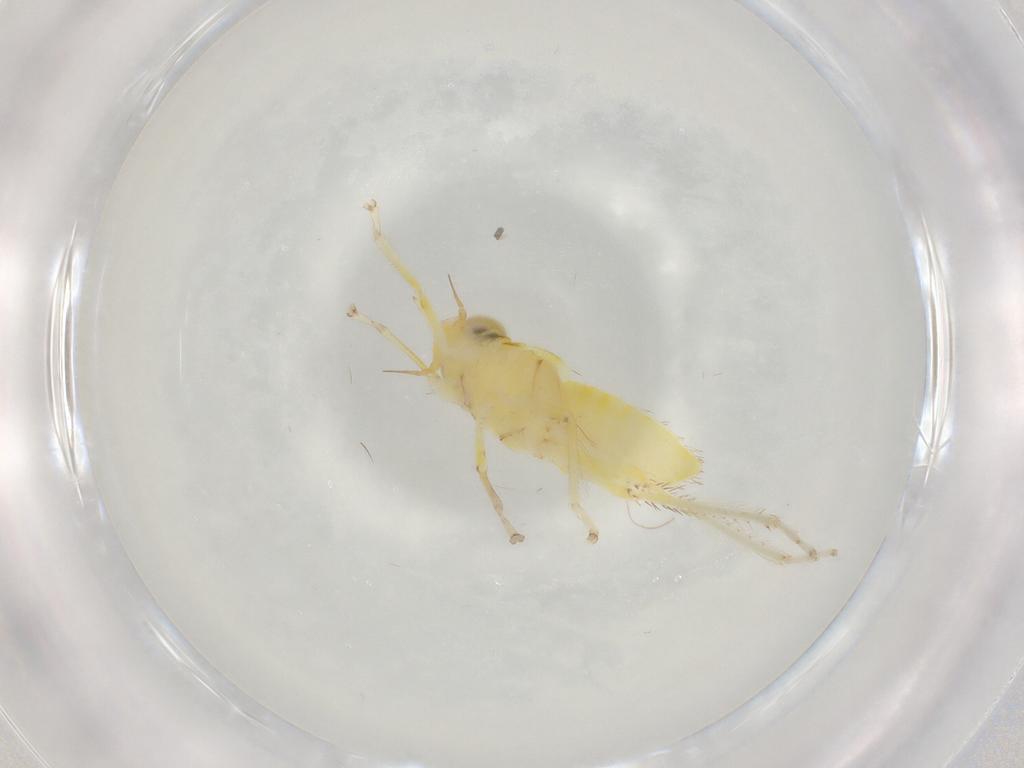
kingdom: Animalia
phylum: Arthropoda
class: Insecta
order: Hemiptera
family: Cicadellidae
